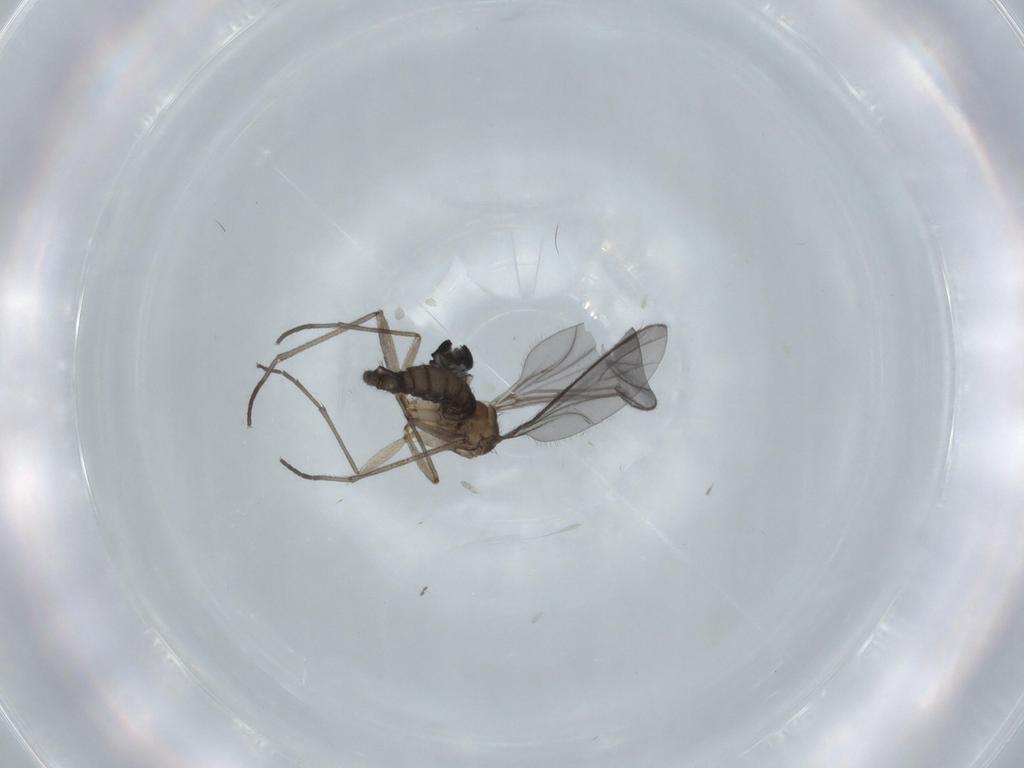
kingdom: Animalia
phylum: Arthropoda
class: Insecta
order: Diptera
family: Sciaridae
